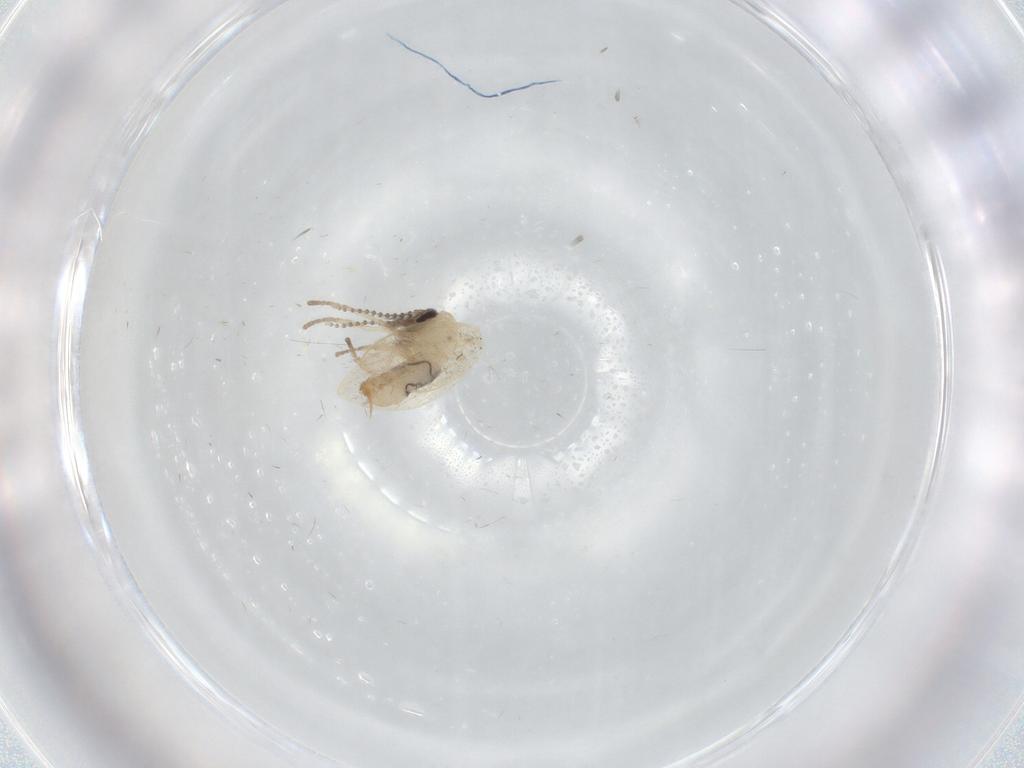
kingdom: Animalia
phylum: Arthropoda
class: Insecta
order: Diptera
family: Psychodidae
